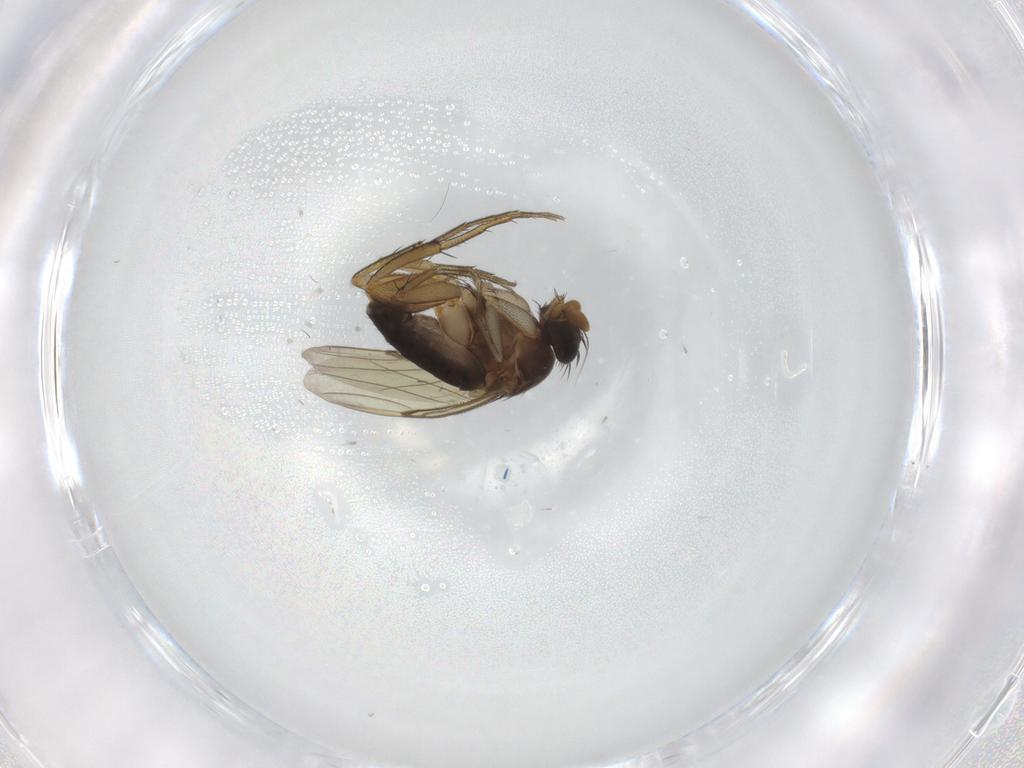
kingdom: Animalia
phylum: Arthropoda
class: Insecta
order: Diptera
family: Phoridae
